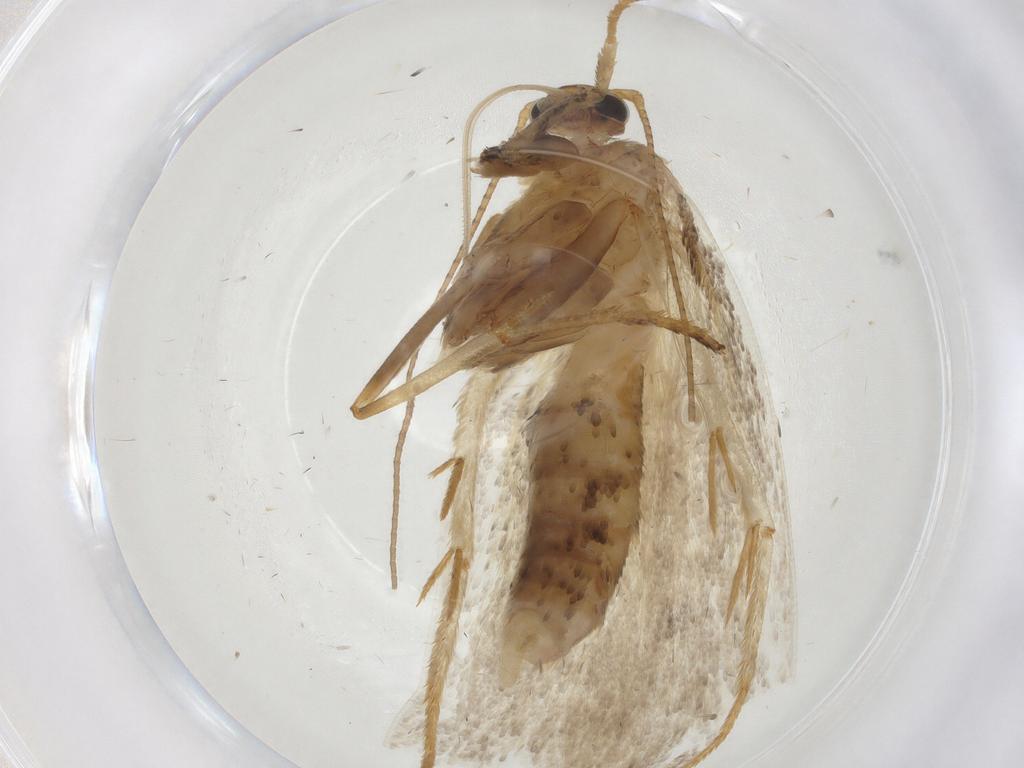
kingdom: Animalia
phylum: Arthropoda
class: Insecta
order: Lepidoptera
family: Depressariidae
